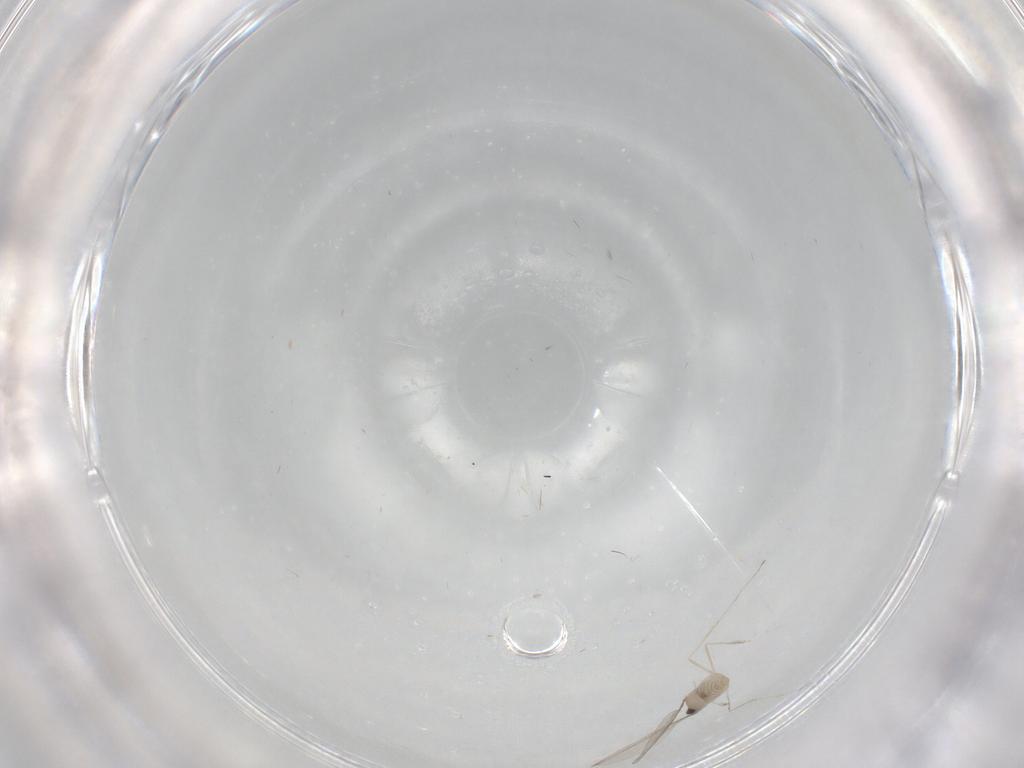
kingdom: Animalia
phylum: Arthropoda
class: Insecta
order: Diptera
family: Cecidomyiidae
